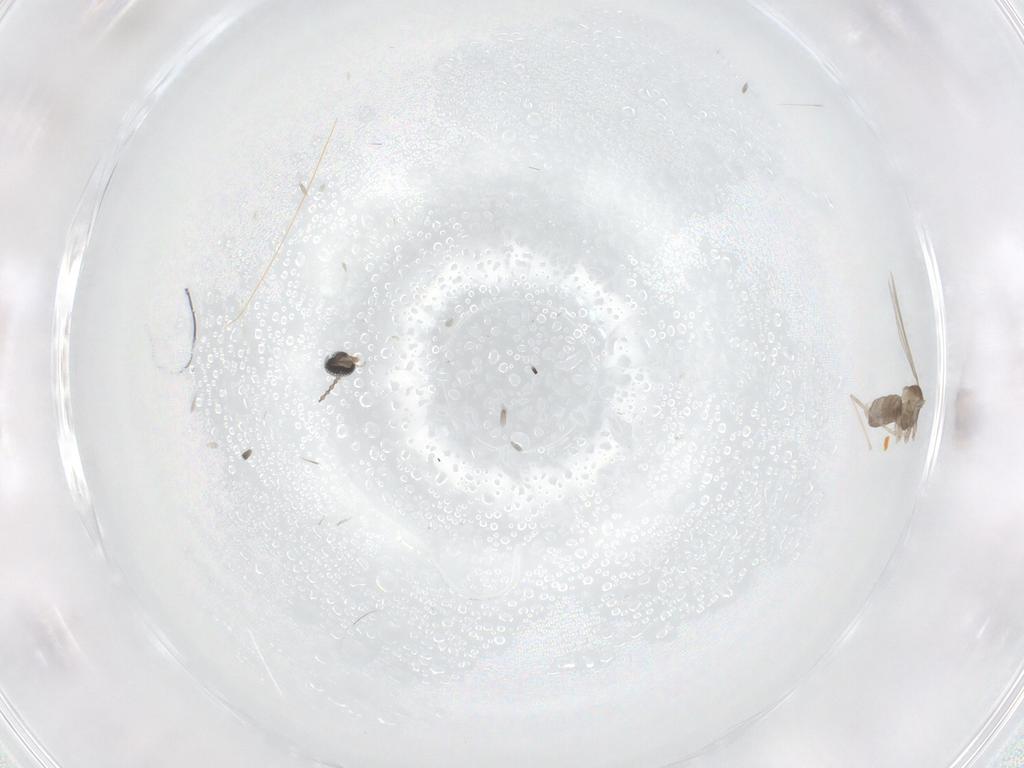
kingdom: Animalia
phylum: Arthropoda
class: Insecta
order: Diptera
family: Cecidomyiidae
